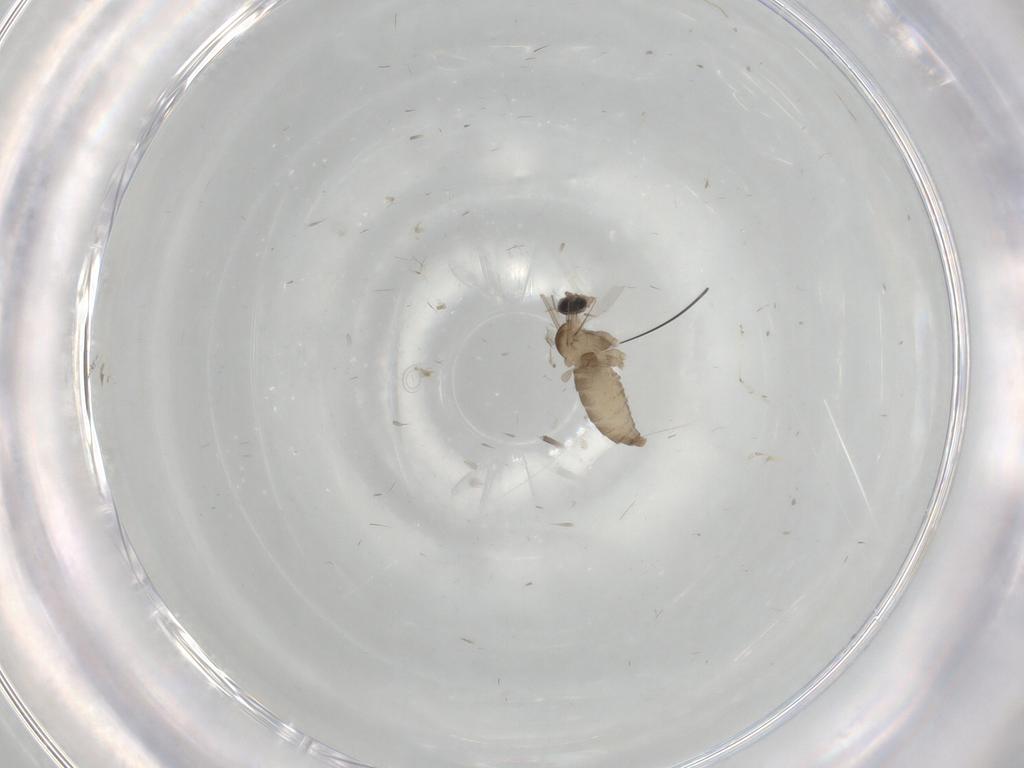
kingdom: Animalia
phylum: Arthropoda
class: Insecta
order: Diptera
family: Cecidomyiidae
